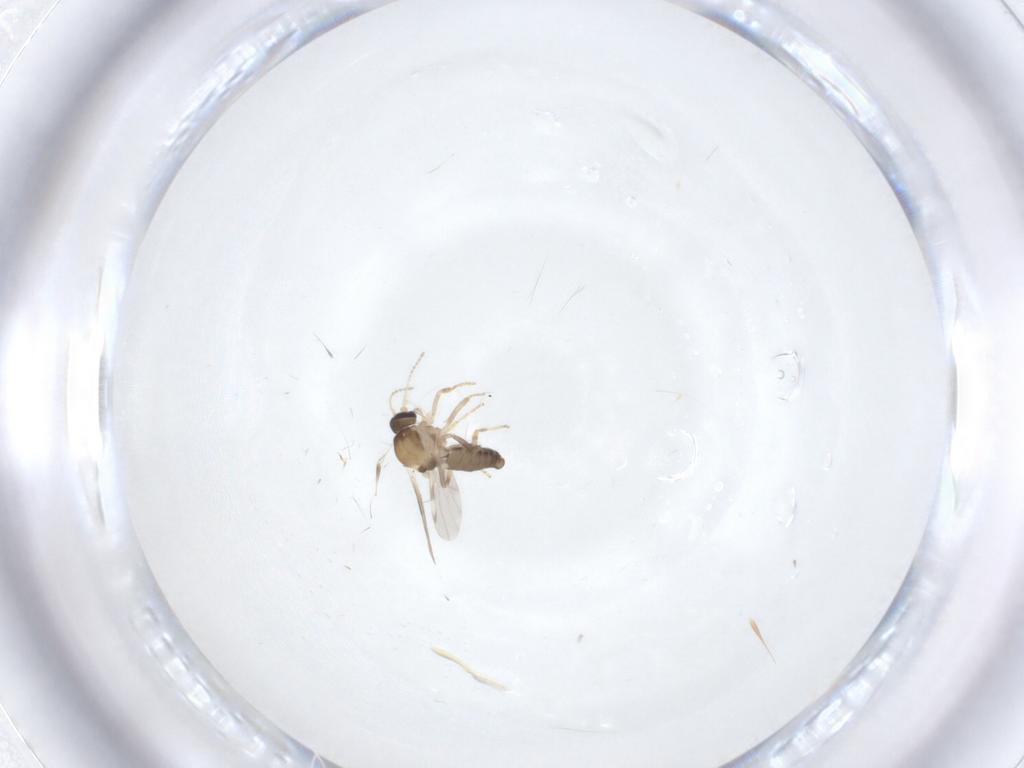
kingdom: Animalia
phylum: Arthropoda
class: Insecta
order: Diptera
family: Ceratopogonidae
